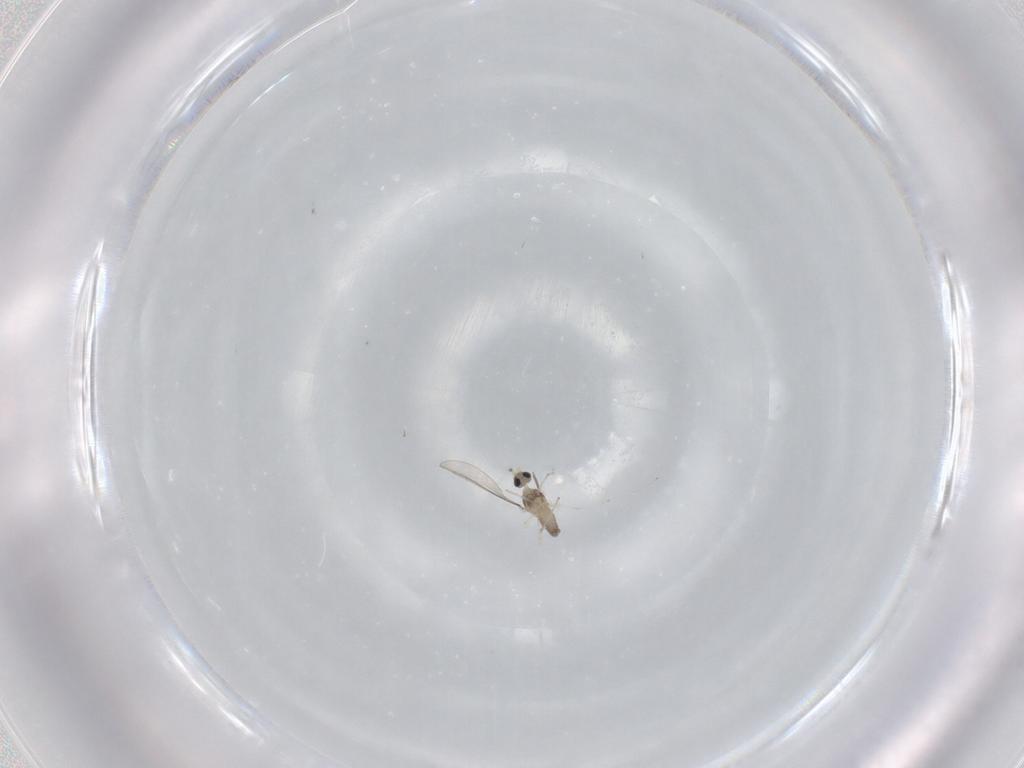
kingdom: Animalia
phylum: Arthropoda
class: Insecta
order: Diptera
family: Cecidomyiidae
